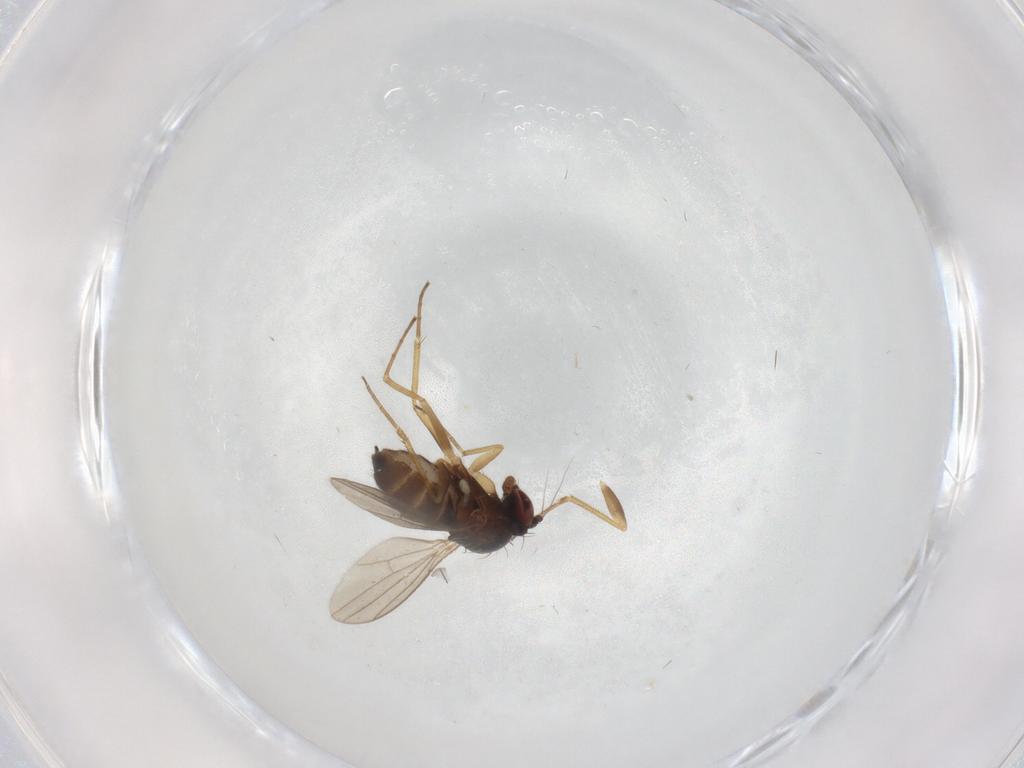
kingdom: Animalia
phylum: Arthropoda
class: Insecta
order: Diptera
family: Dolichopodidae
